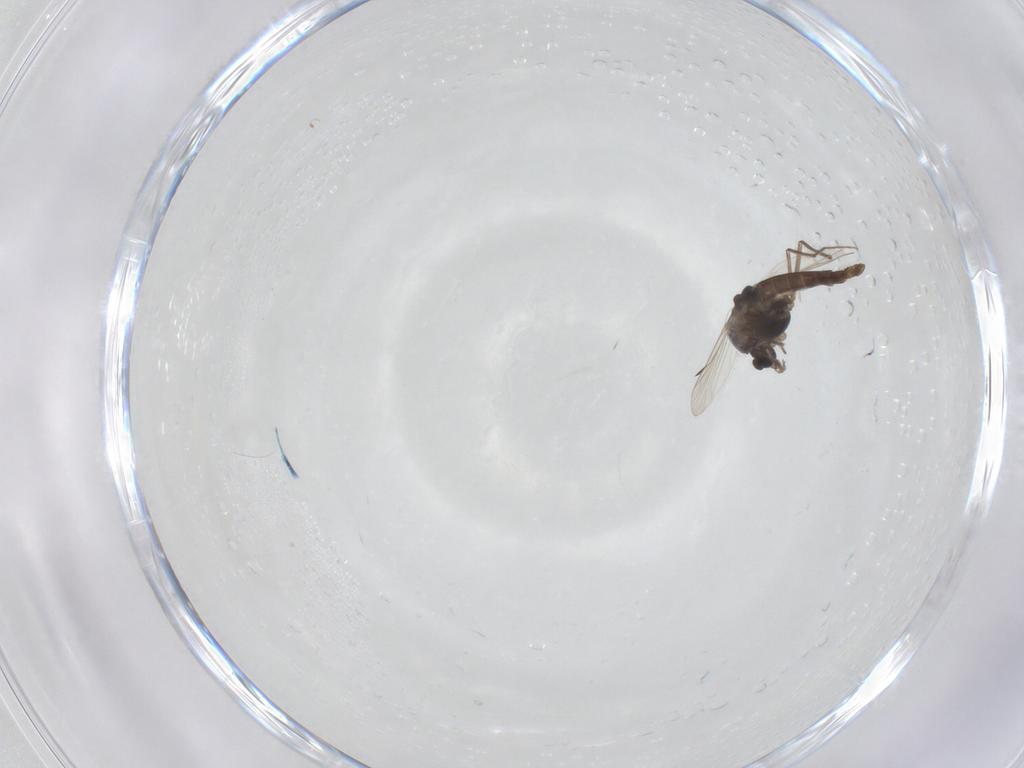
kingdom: Animalia
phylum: Arthropoda
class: Insecta
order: Diptera
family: Chironomidae
